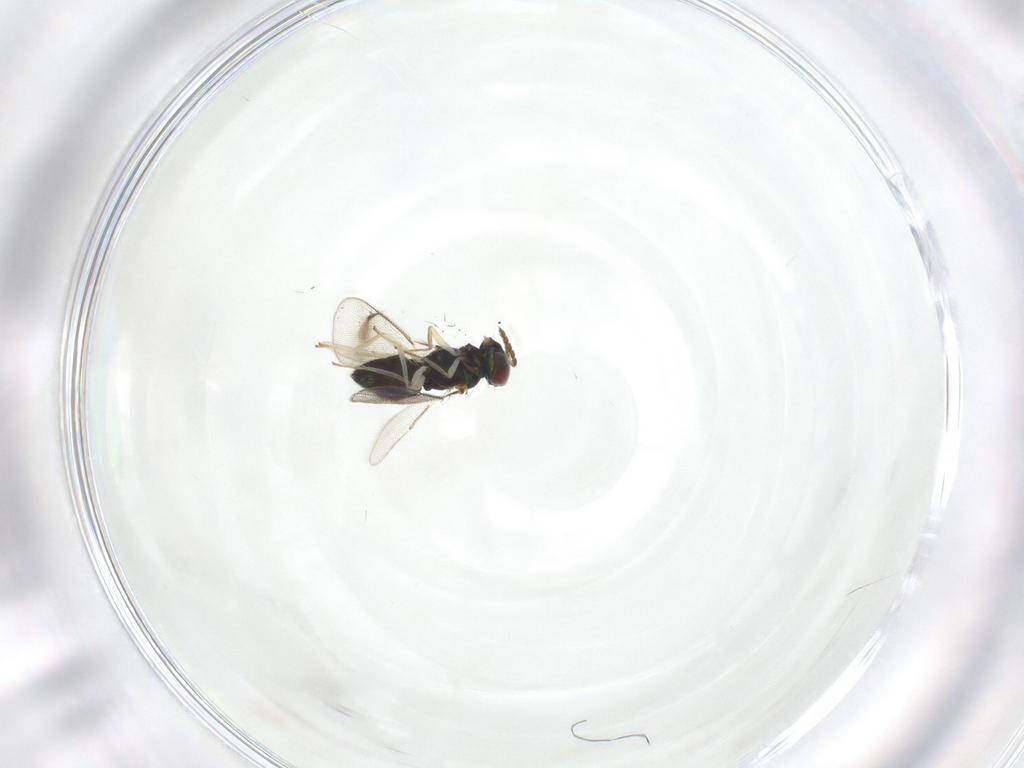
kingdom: Animalia
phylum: Arthropoda
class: Insecta
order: Hymenoptera
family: Eulophidae
